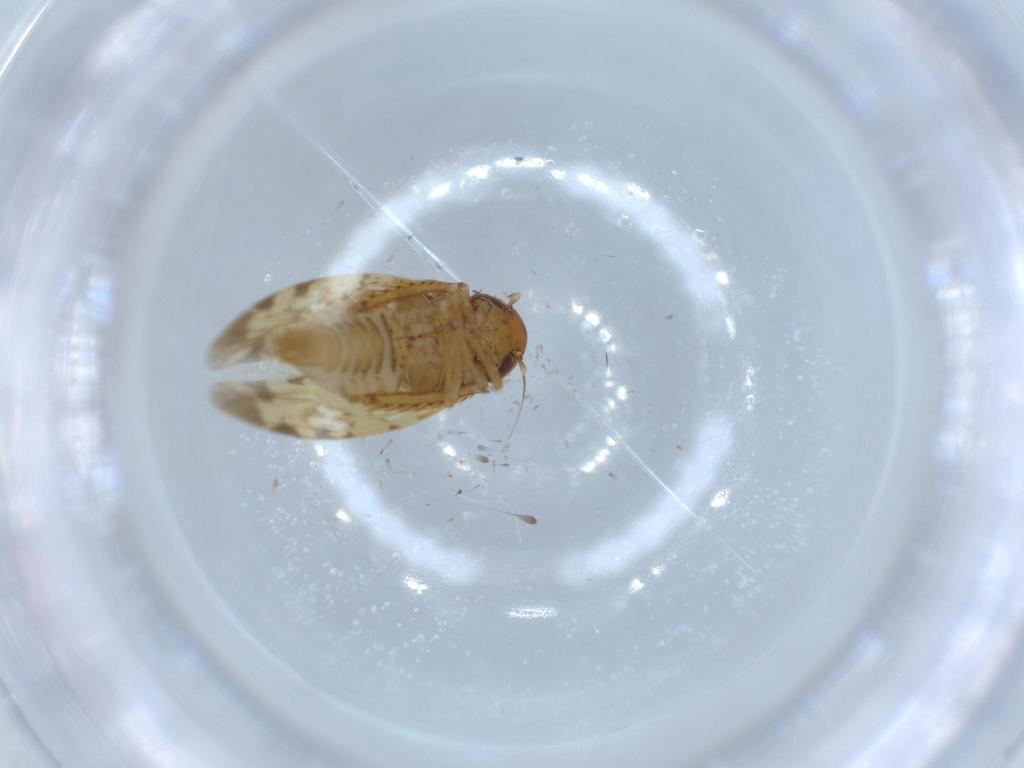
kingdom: Animalia
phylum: Arthropoda
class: Insecta
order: Hemiptera
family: Cicadellidae
